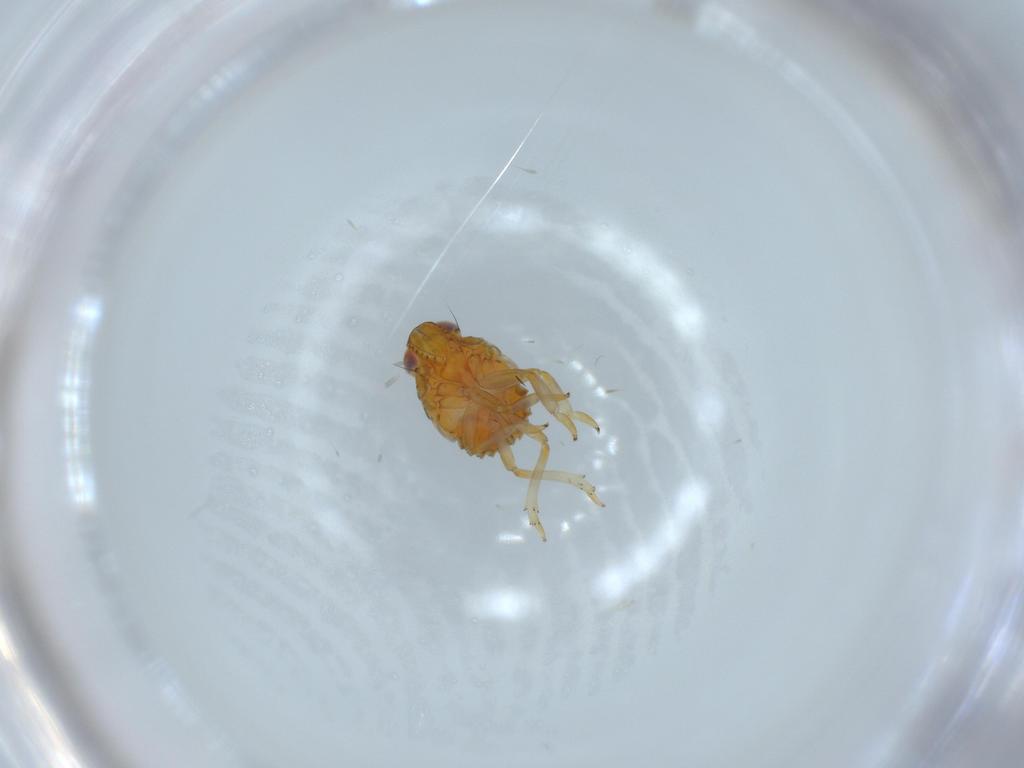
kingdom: Animalia
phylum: Arthropoda
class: Insecta
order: Hemiptera
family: Issidae
